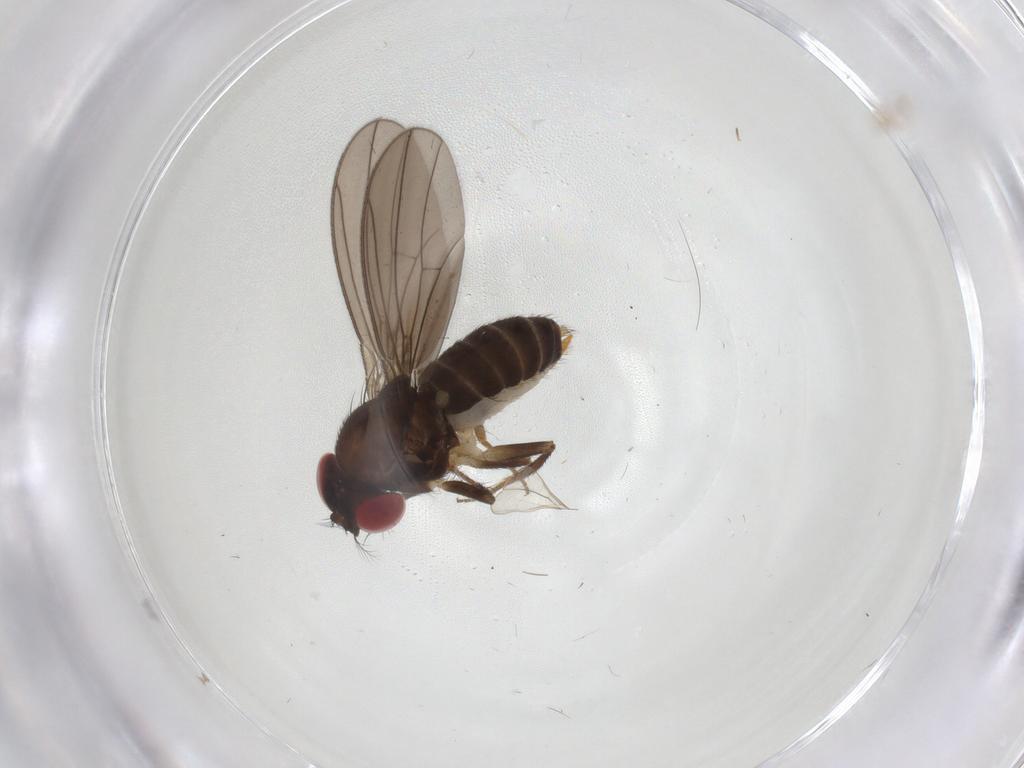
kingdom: Animalia
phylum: Arthropoda
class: Insecta
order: Diptera
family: Drosophilidae
